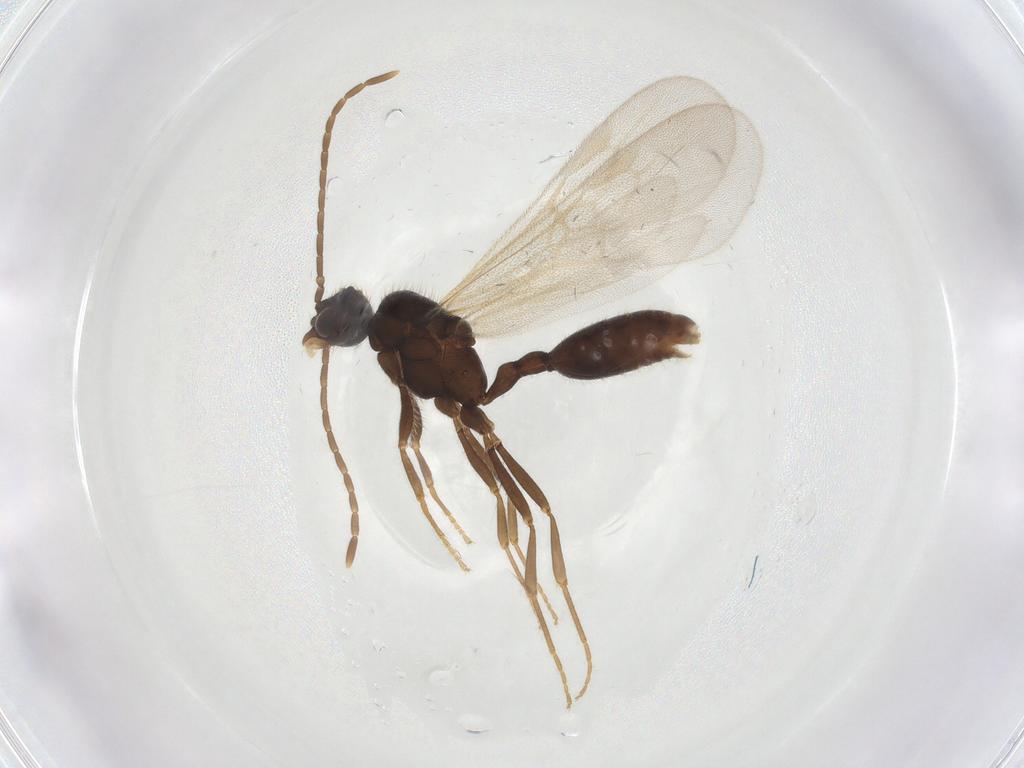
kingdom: Animalia
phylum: Arthropoda
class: Insecta
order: Hymenoptera
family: Formicidae
